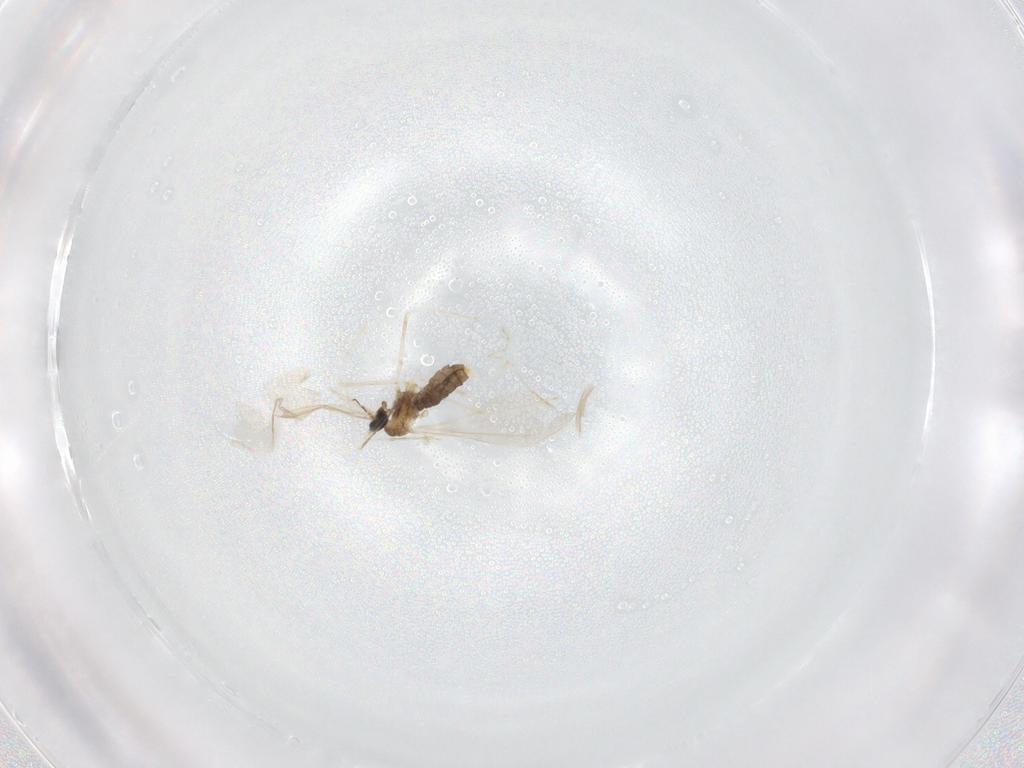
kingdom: Animalia
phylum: Arthropoda
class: Insecta
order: Diptera
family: Cecidomyiidae
